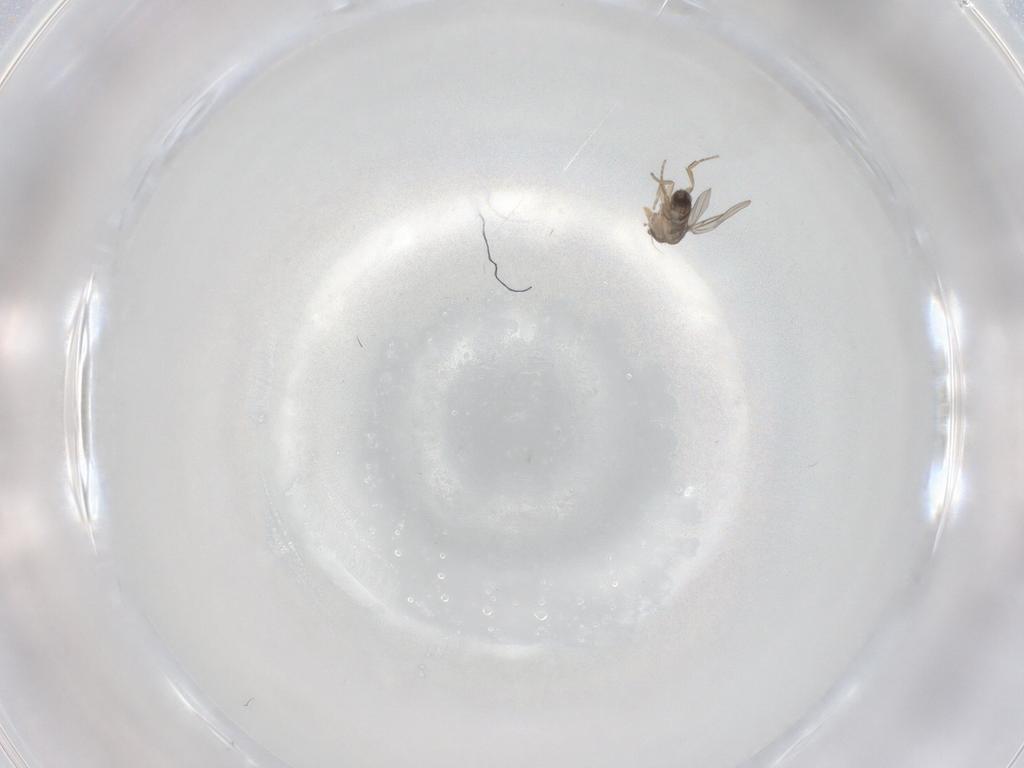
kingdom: Animalia
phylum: Arthropoda
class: Insecta
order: Diptera
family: Phoridae
